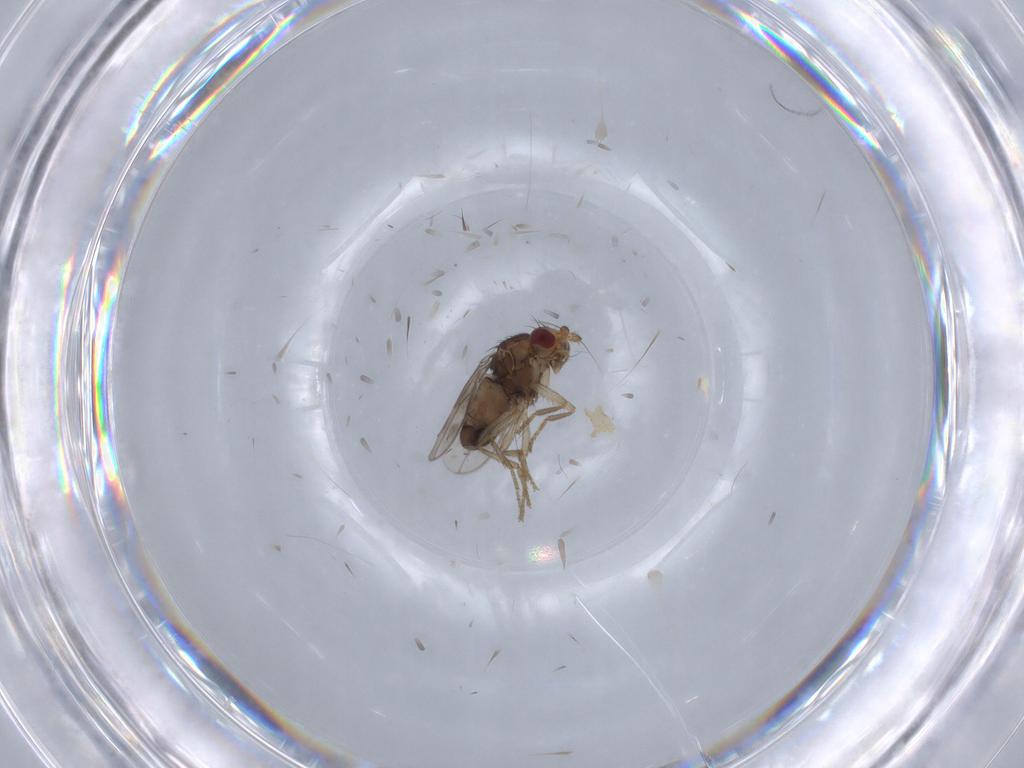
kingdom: Animalia
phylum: Arthropoda
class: Insecta
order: Diptera
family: Sphaeroceridae
